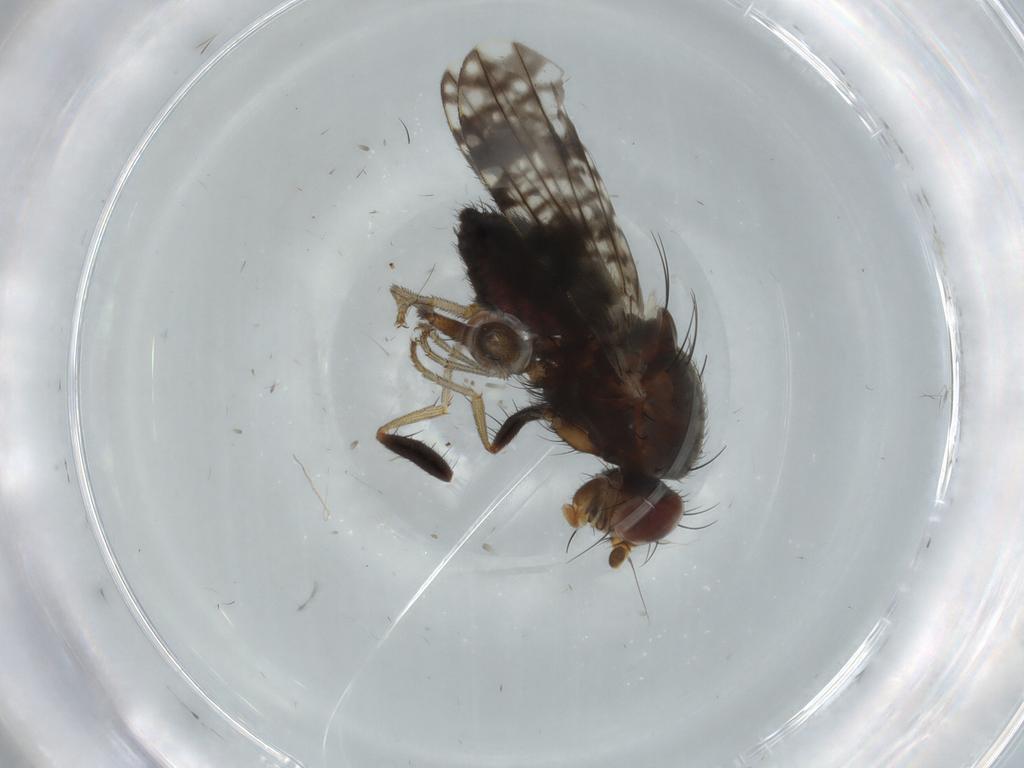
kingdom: Animalia
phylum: Arthropoda
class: Insecta
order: Diptera
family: Tephritidae
